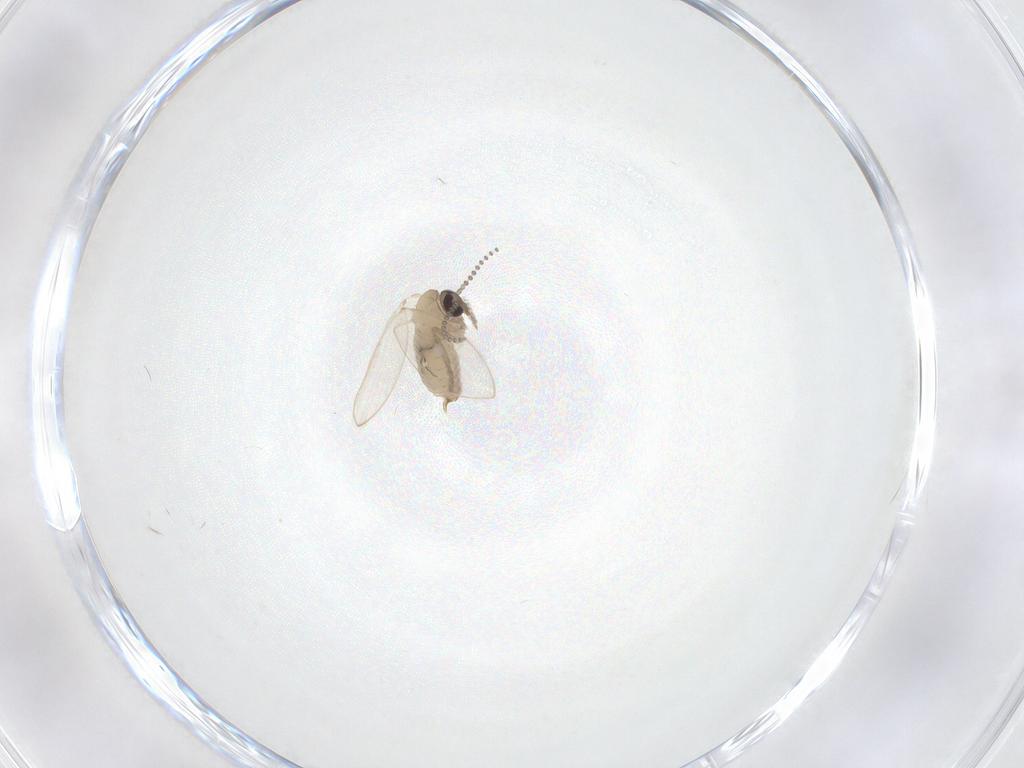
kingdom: Animalia
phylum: Arthropoda
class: Insecta
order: Diptera
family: Psychodidae
